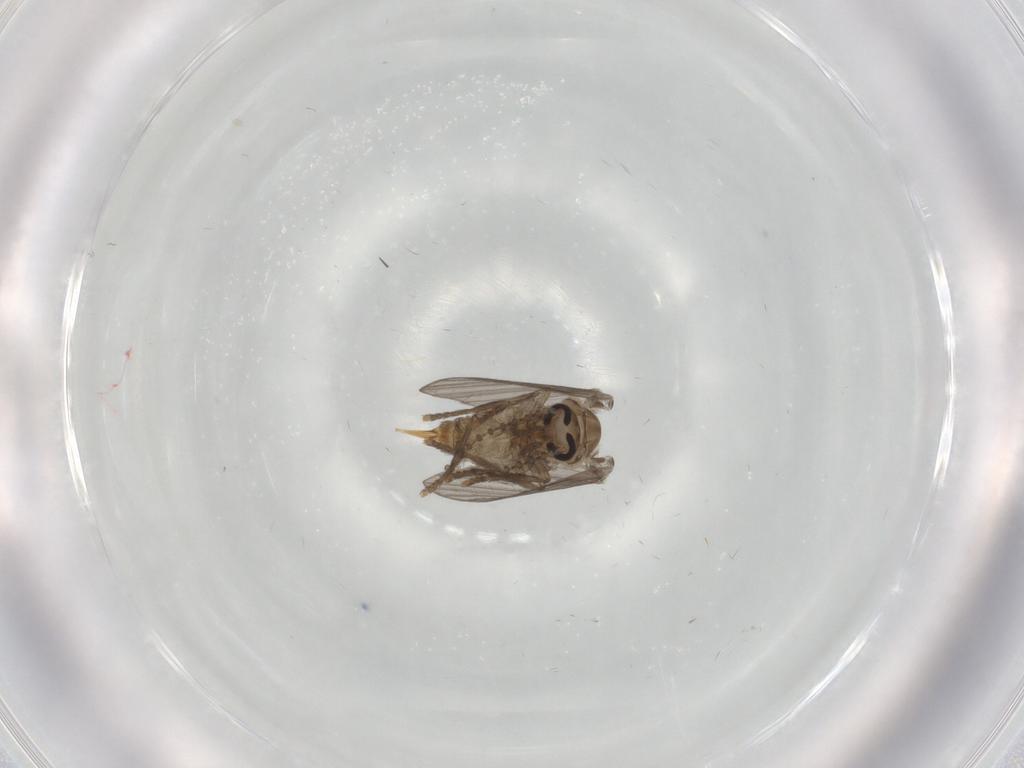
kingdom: Animalia
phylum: Arthropoda
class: Insecta
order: Diptera
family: Psychodidae
